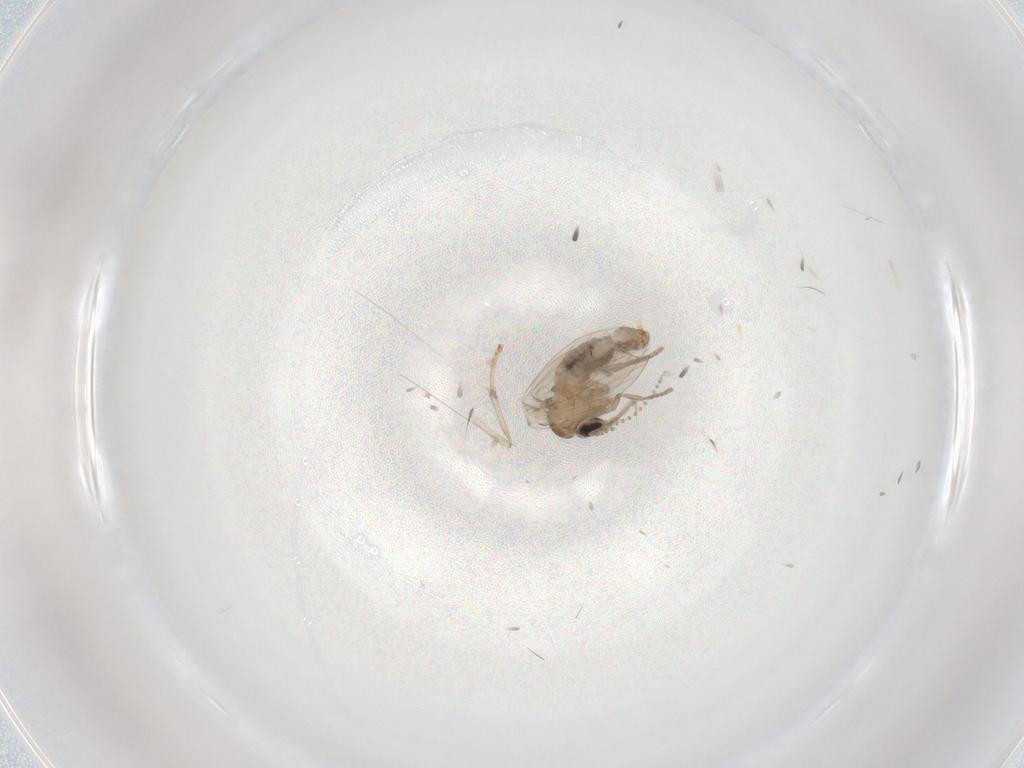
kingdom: Animalia
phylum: Arthropoda
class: Insecta
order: Diptera
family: Psychodidae
